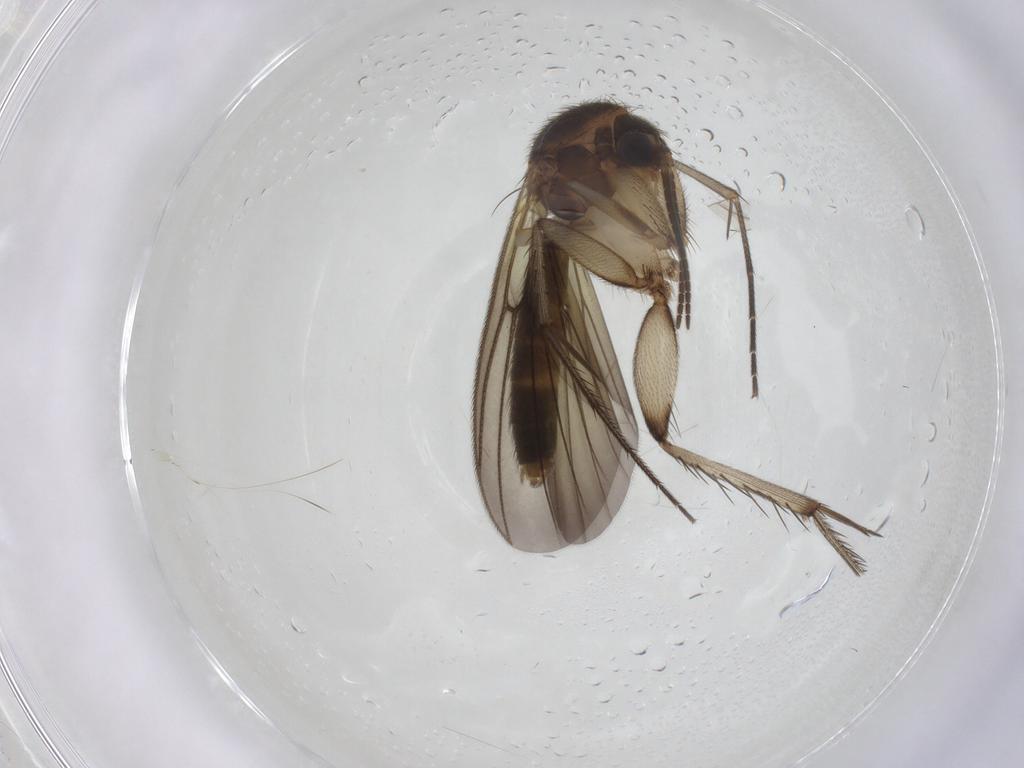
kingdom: Animalia
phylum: Arthropoda
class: Insecta
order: Diptera
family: Mycetophilidae
